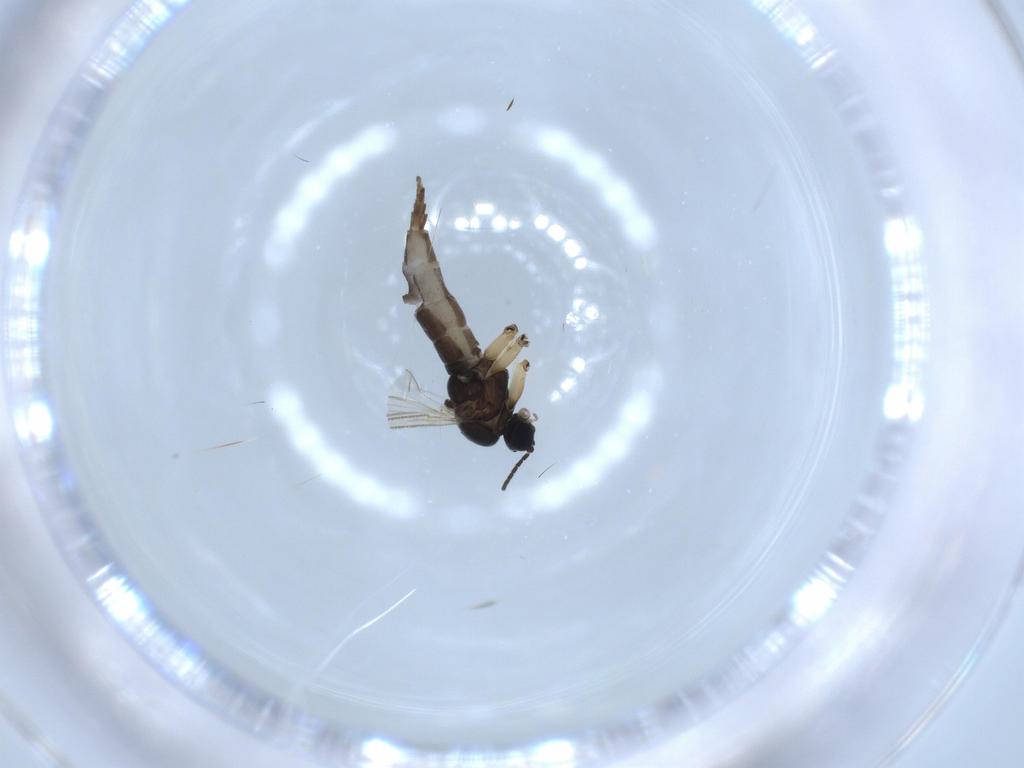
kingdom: Animalia
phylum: Arthropoda
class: Insecta
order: Diptera
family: Sciaridae
